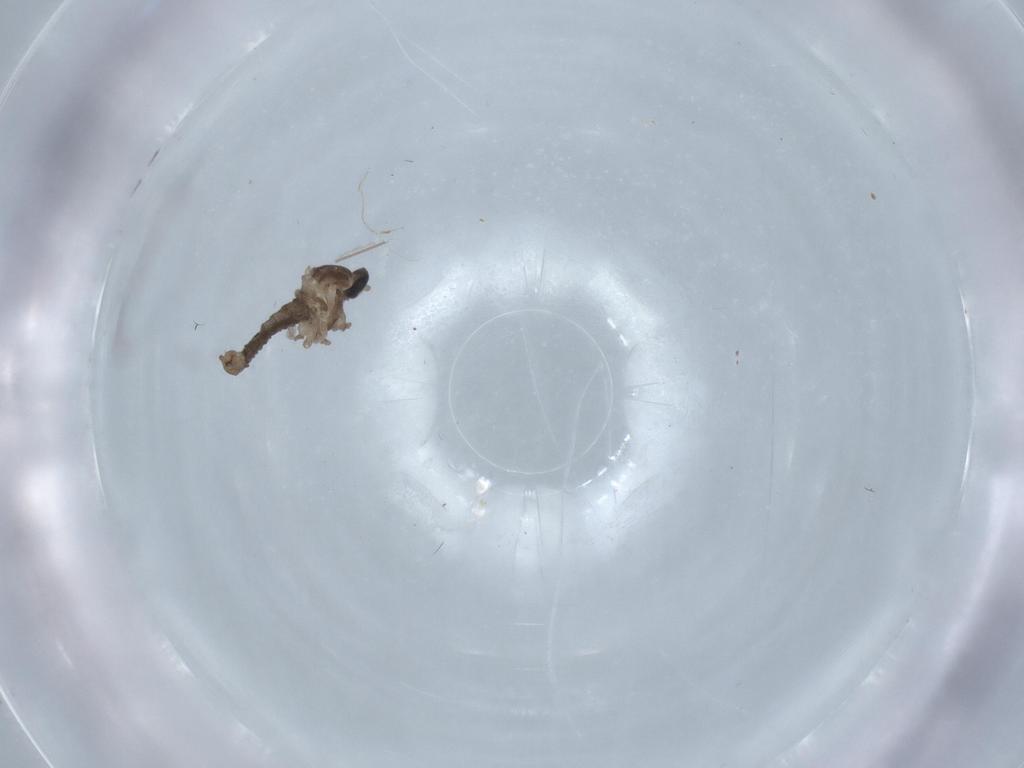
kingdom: Animalia
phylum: Arthropoda
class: Insecta
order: Diptera
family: Cecidomyiidae
